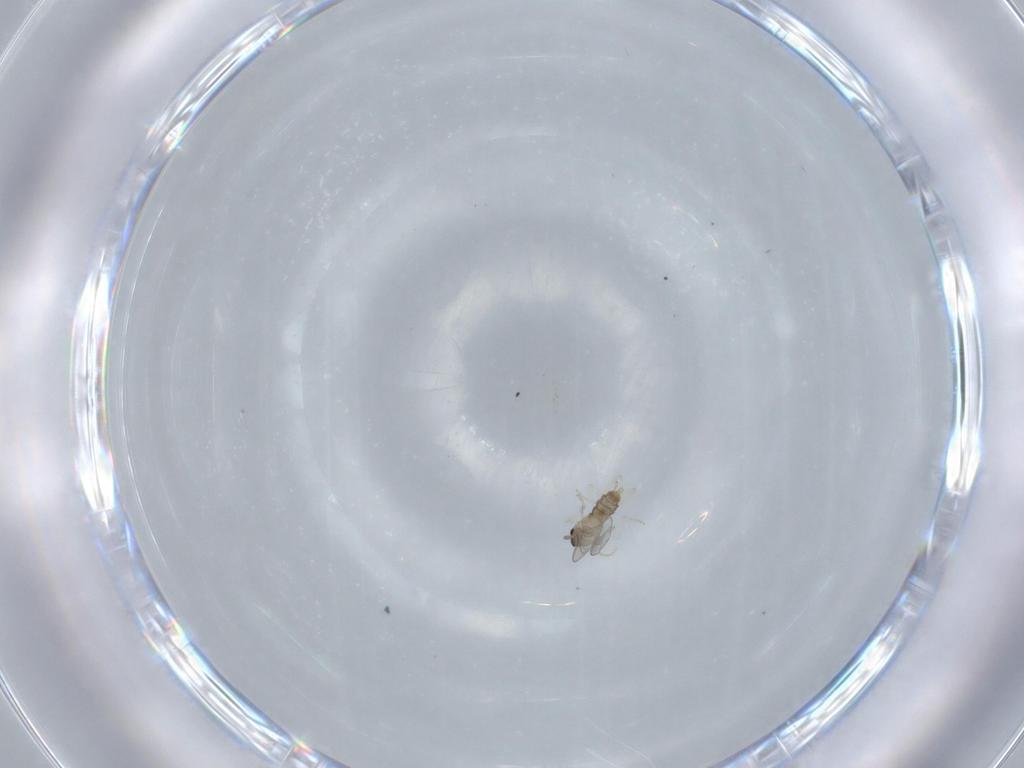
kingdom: Animalia
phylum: Arthropoda
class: Insecta
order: Diptera
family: Cecidomyiidae
